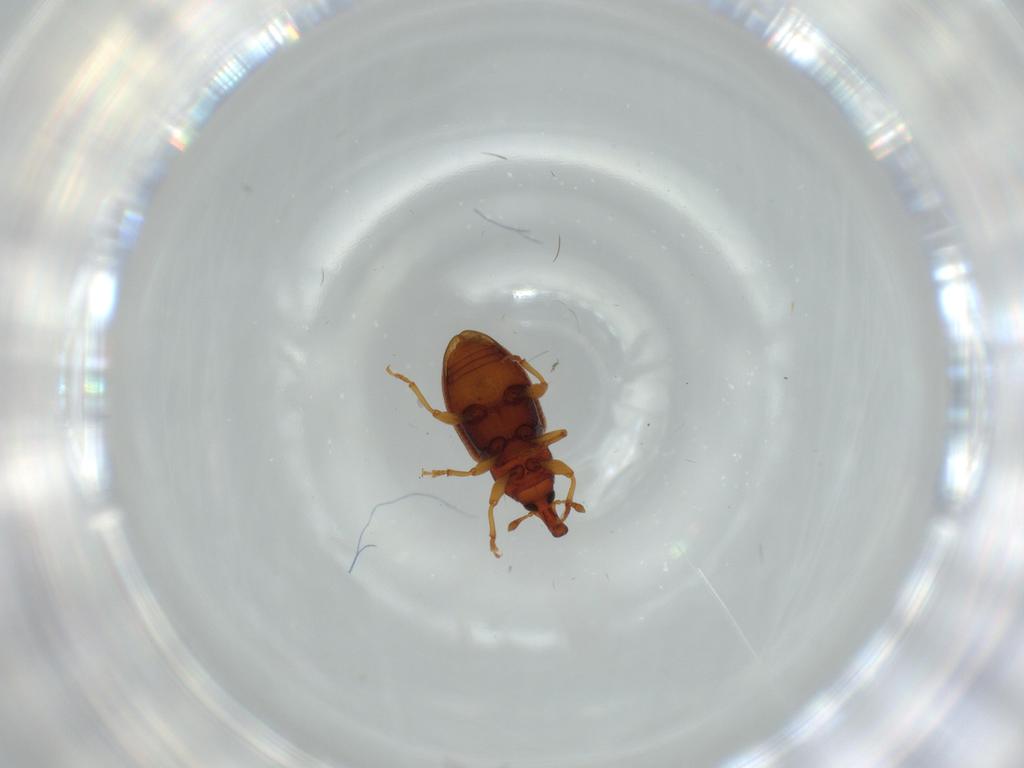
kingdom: Animalia
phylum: Arthropoda
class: Insecta
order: Coleoptera
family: Curculionidae
